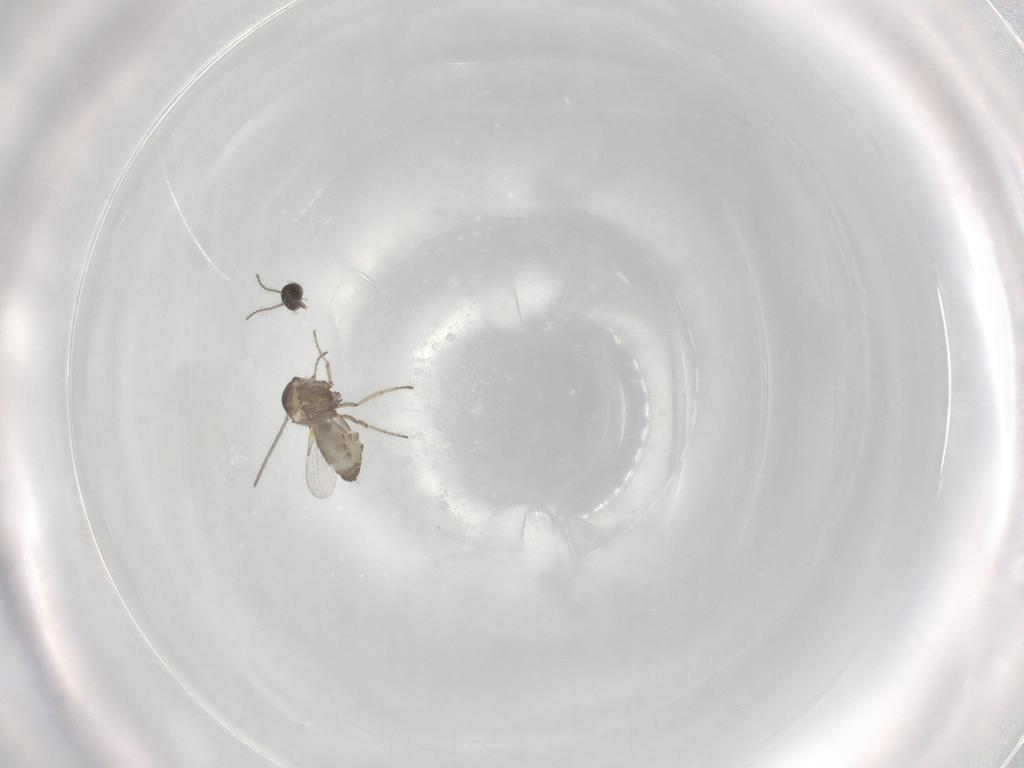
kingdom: Animalia
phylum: Arthropoda
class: Insecta
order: Diptera
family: Ceratopogonidae
